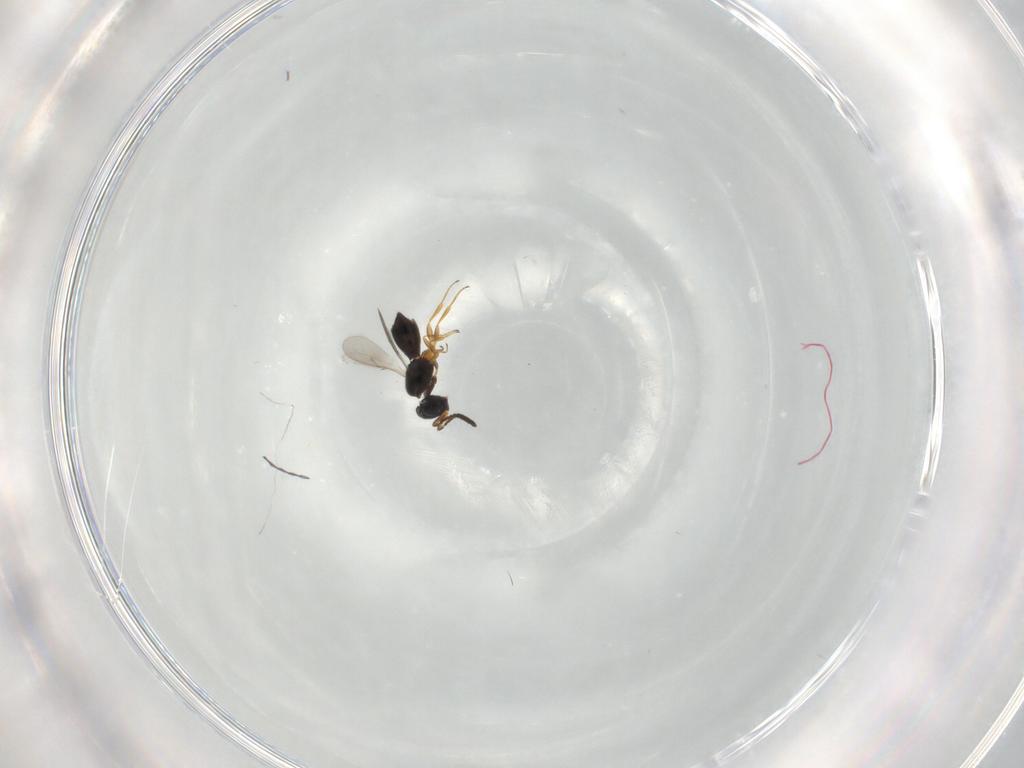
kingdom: Animalia
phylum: Arthropoda
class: Insecta
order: Hymenoptera
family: Scelionidae
